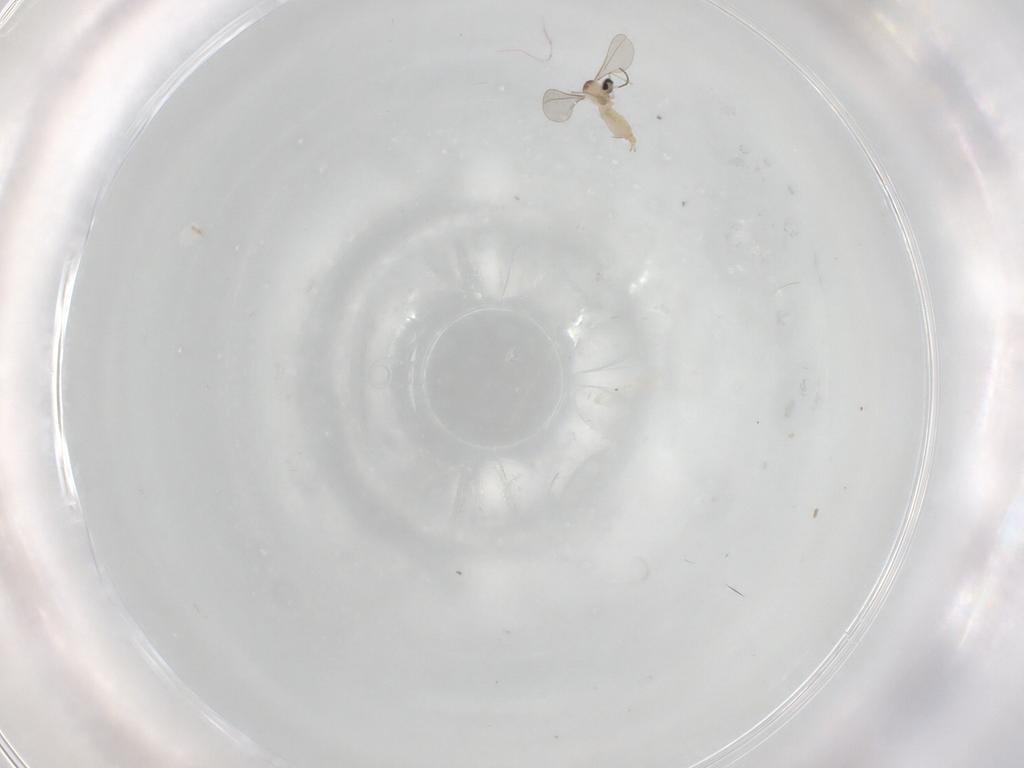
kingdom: Animalia
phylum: Arthropoda
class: Insecta
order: Diptera
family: Cecidomyiidae
